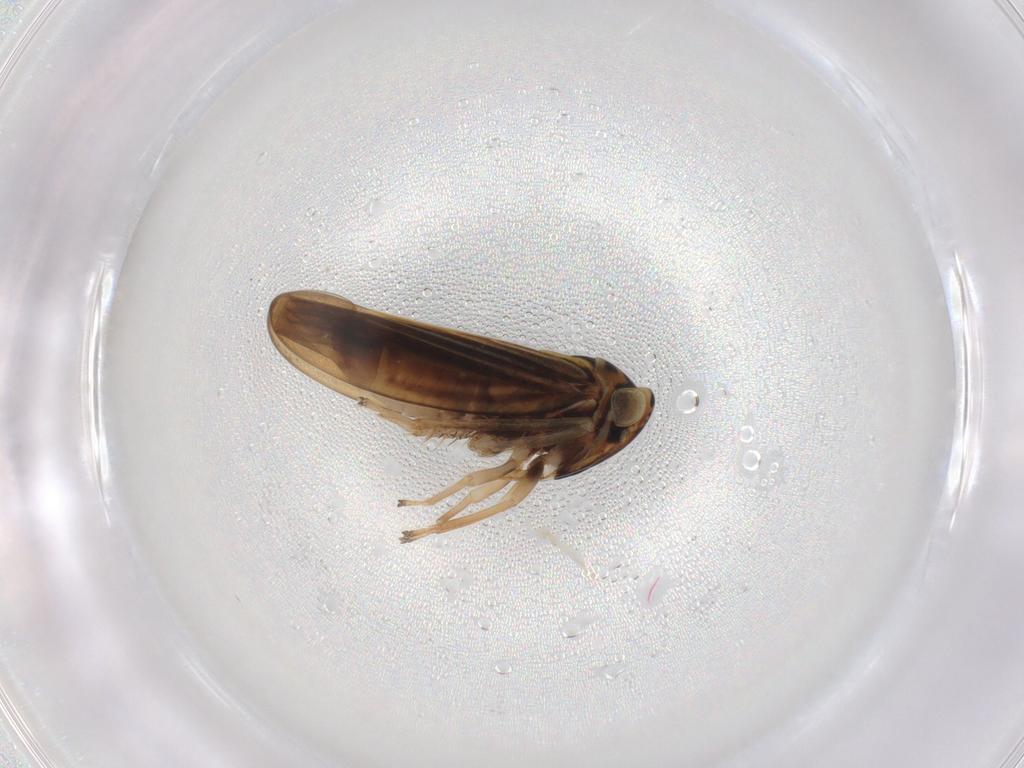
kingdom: Animalia
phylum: Arthropoda
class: Insecta
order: Hemiptera
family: Cicadellidae
